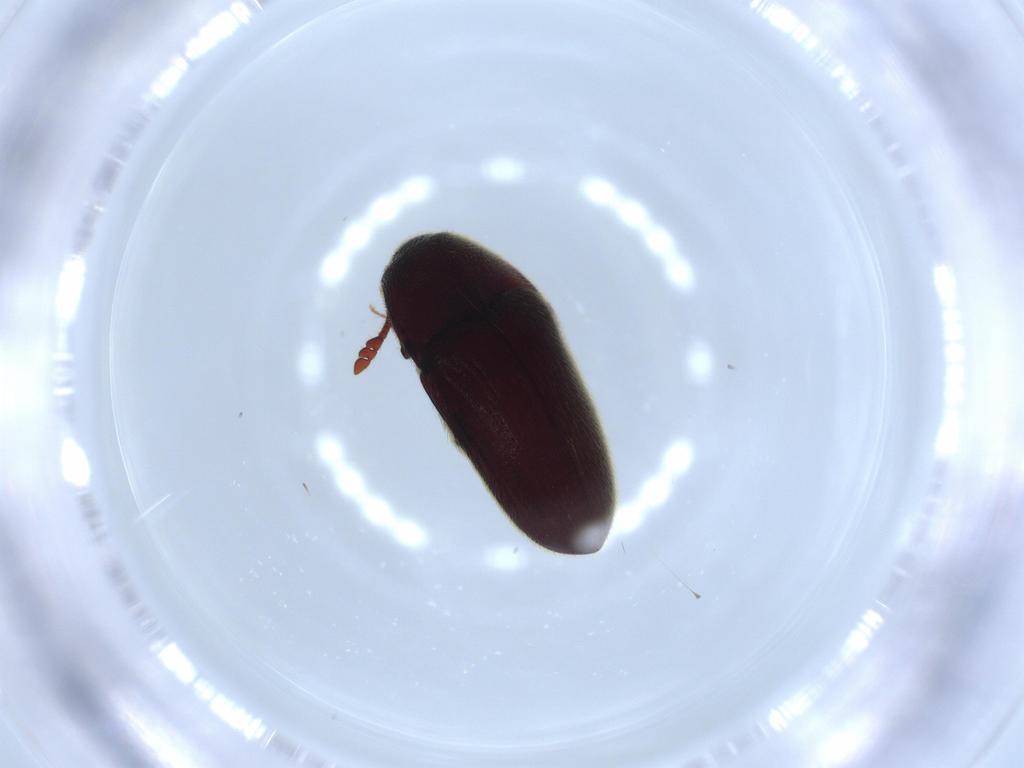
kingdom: Animalia
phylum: Arthropoda
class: Insecta
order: Coleoptera
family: Throscidae
